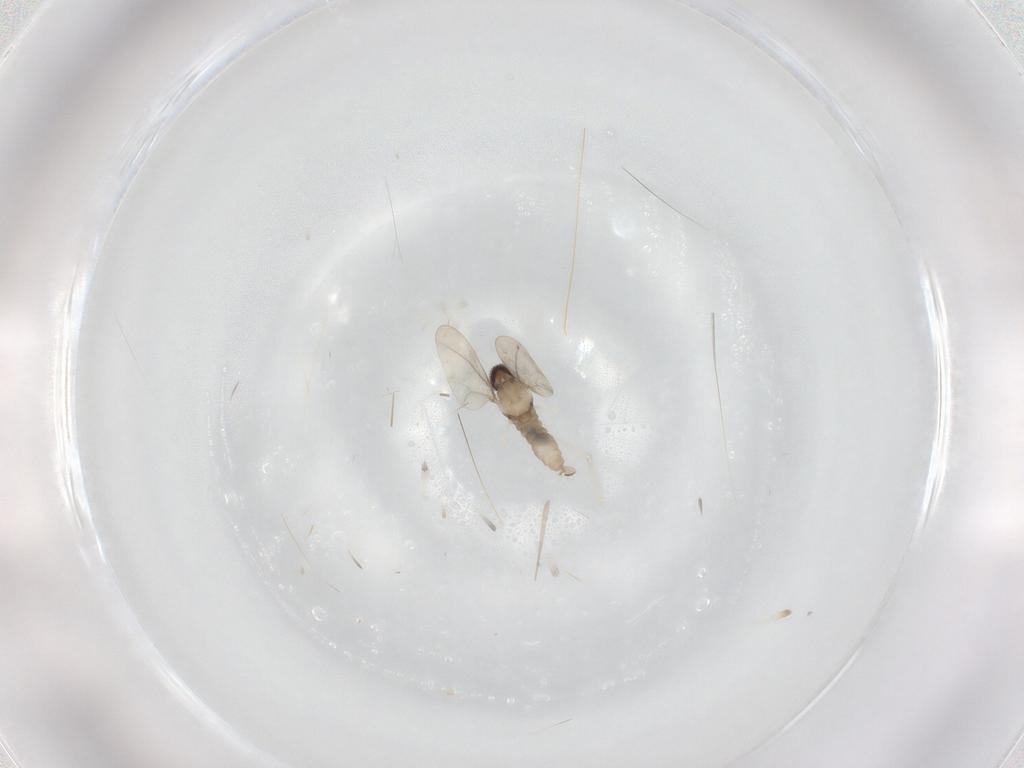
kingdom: Animalia
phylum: Arthropoda
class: Insecta
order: Diptera
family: Cecidomyiidae
